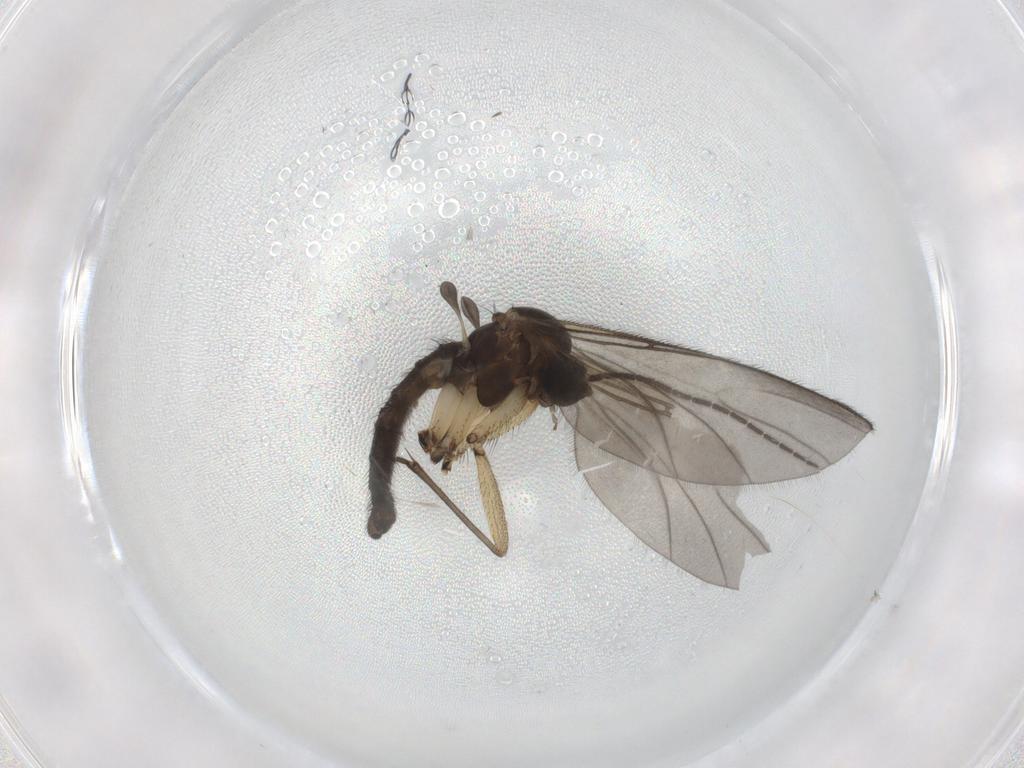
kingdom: Animalia
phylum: Arthropoda
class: Insecta
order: Diptera
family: Sciaridae
